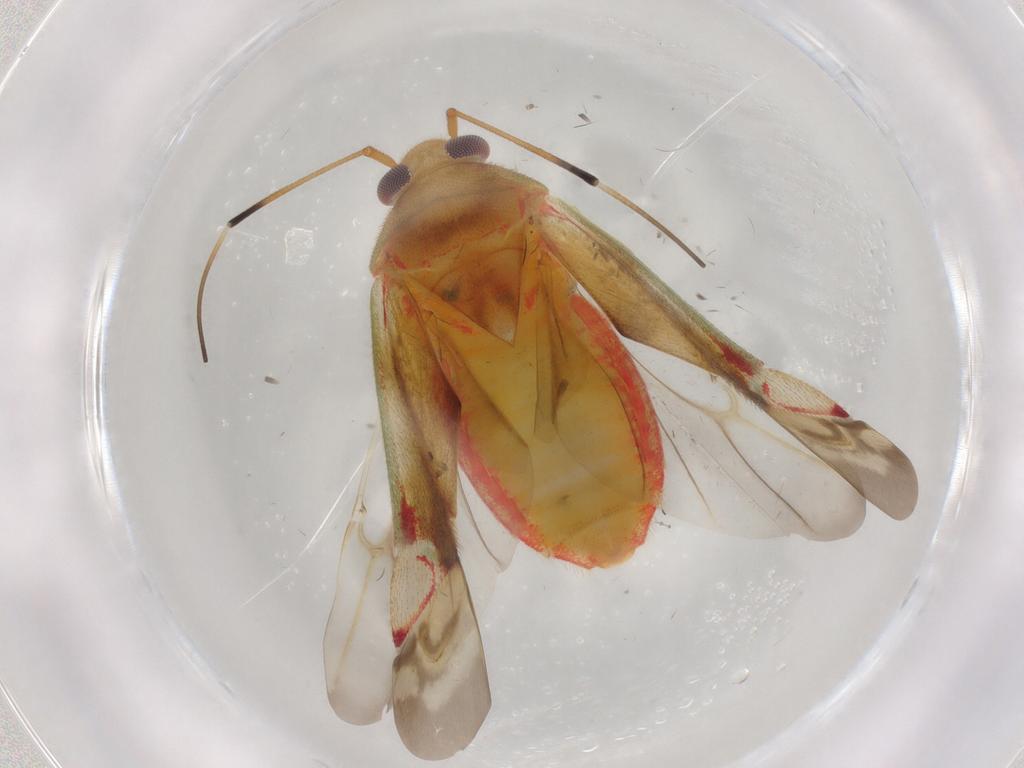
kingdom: Animalia
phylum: Arthropoda
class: Insecta
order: Hemiptera
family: Miridae
